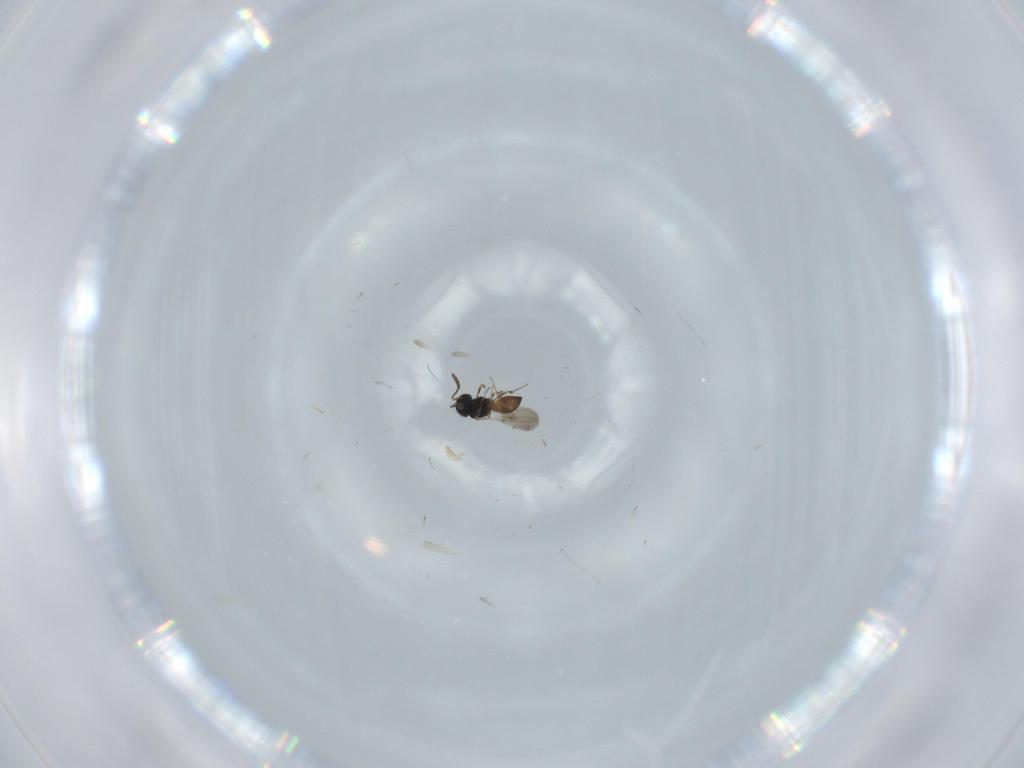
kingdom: Animalia
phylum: Arthropoda
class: Insecta
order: Hymenoptera
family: Scelionidae
